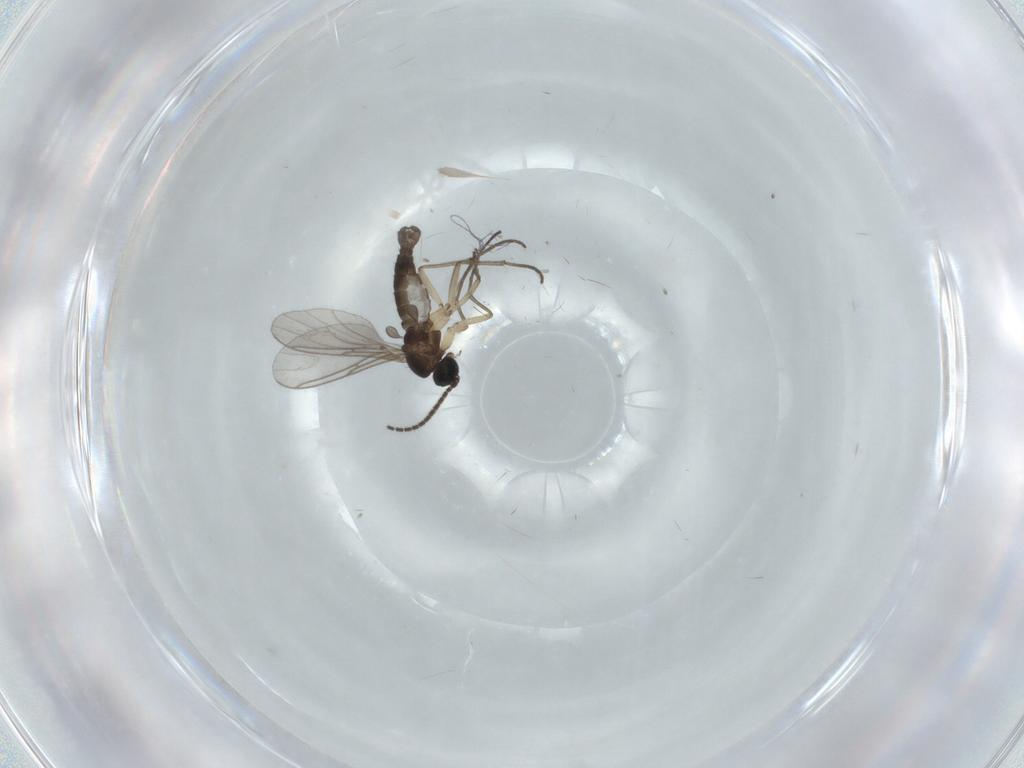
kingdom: Animalia
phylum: Arthropoda
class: Insecta
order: Diptera
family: Sciaridae
